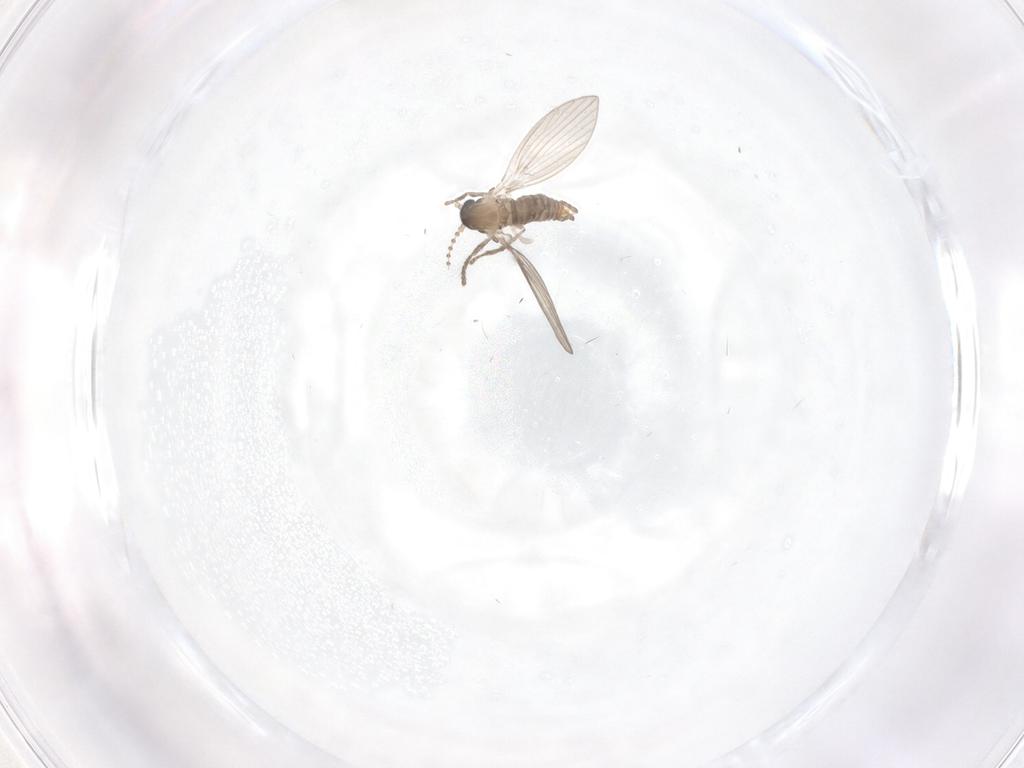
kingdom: Animalia
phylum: Arthropoda
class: Insecta
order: Diptera
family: Psychodidae
